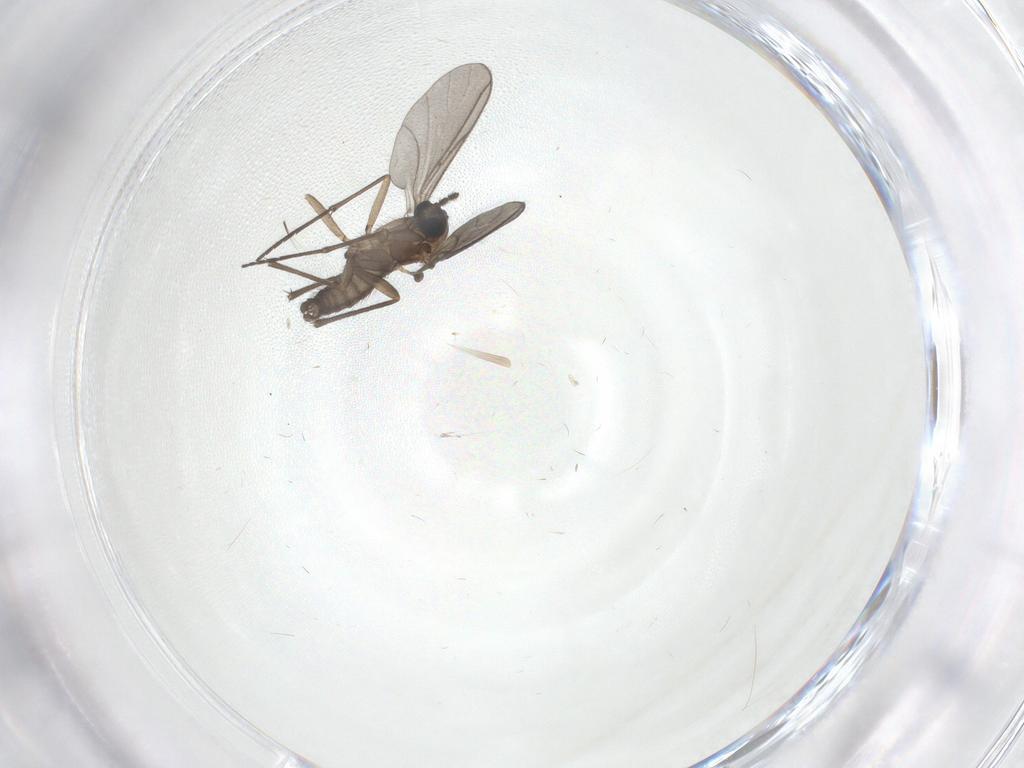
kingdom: Animalia
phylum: Arthropoda
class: Insecta
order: Diptera
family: Sciaridae
